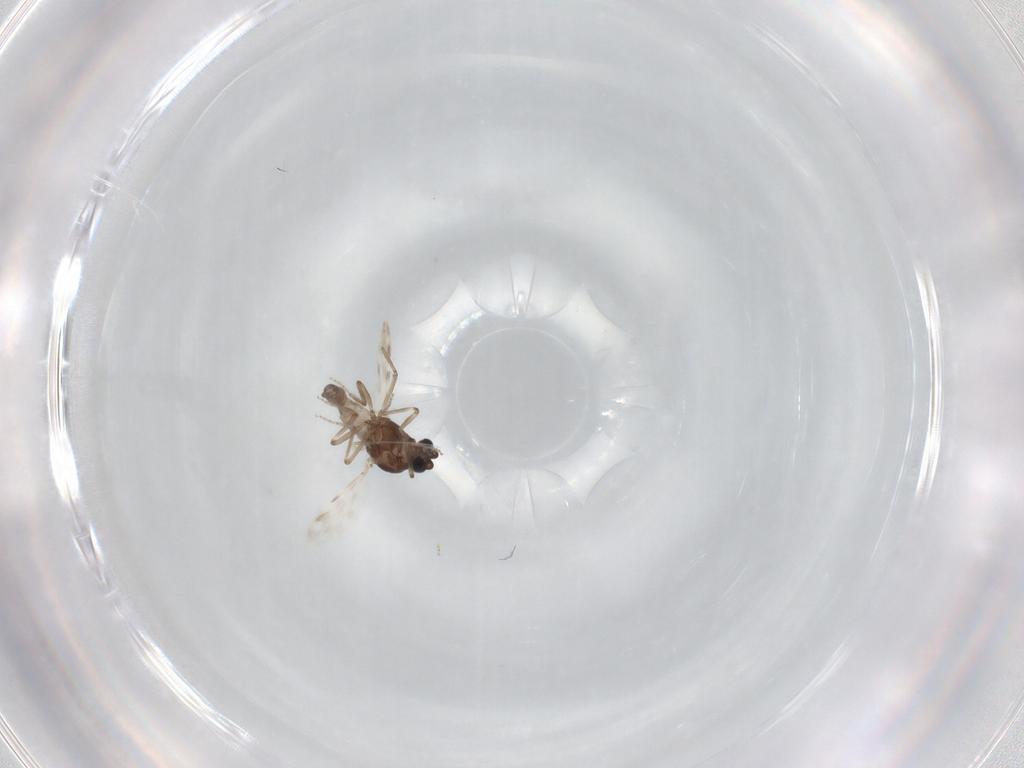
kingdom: Animalia
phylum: Arthropoda
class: Insecta
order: Diptera
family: Ceratopogonidae
